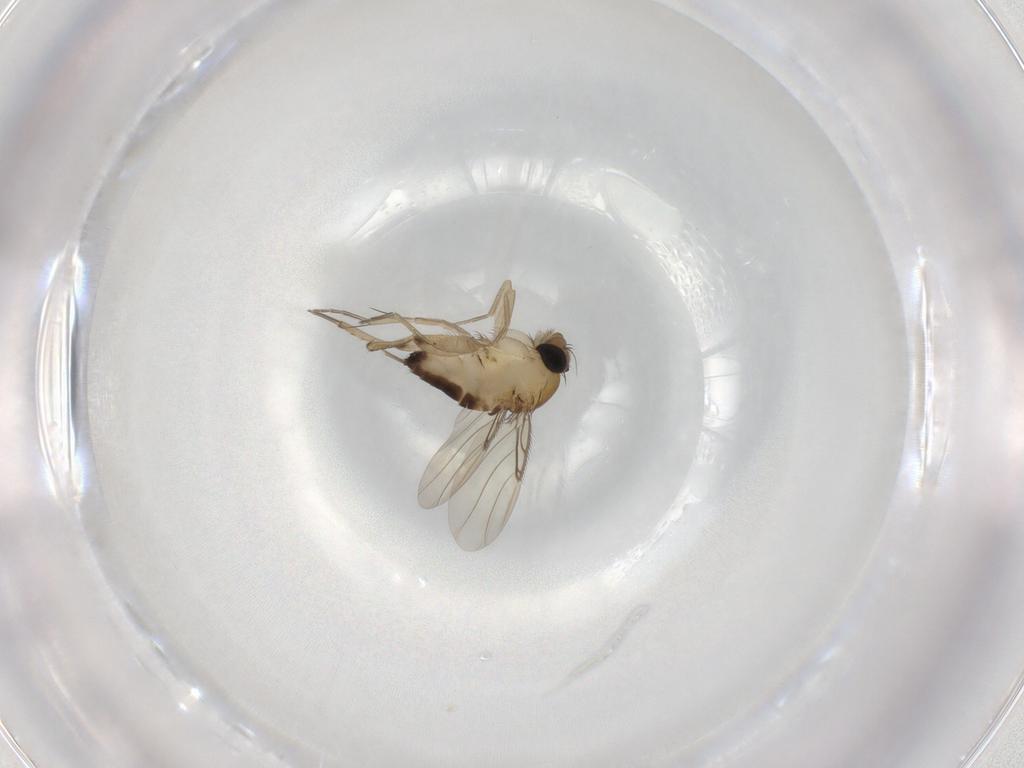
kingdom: Animalia
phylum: Arthropoda
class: Insecta
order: Diptera
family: Phoridae
